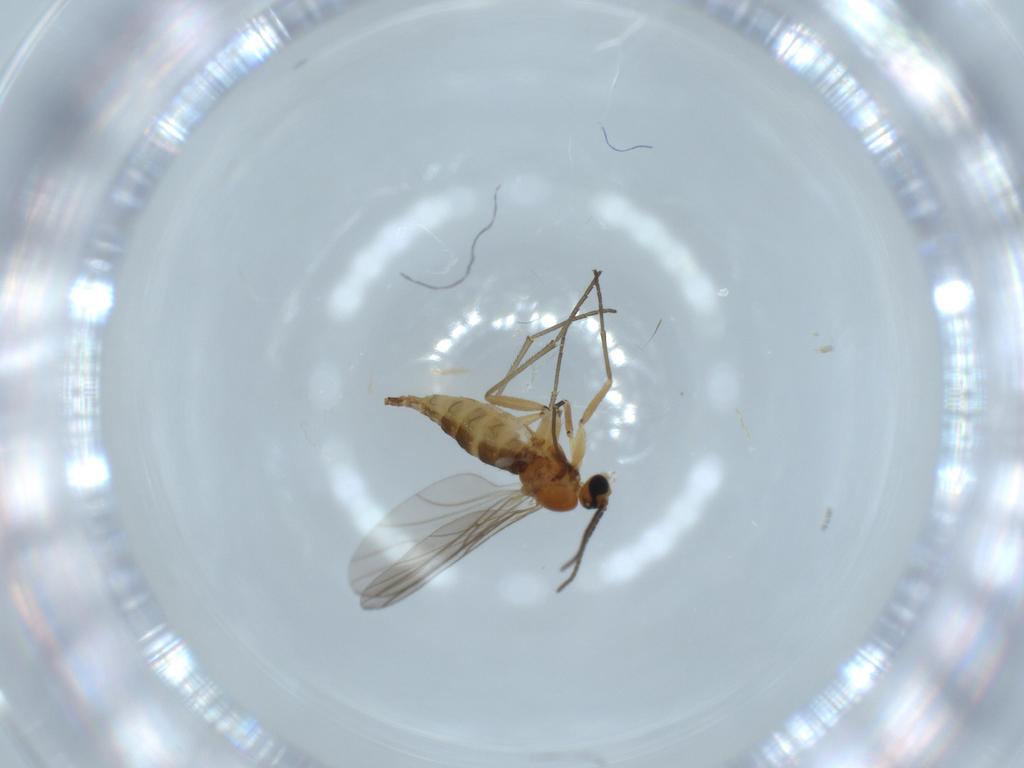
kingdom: Animalia
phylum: Arthropoda
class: Insecta
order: Diptera
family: Sciaridae
